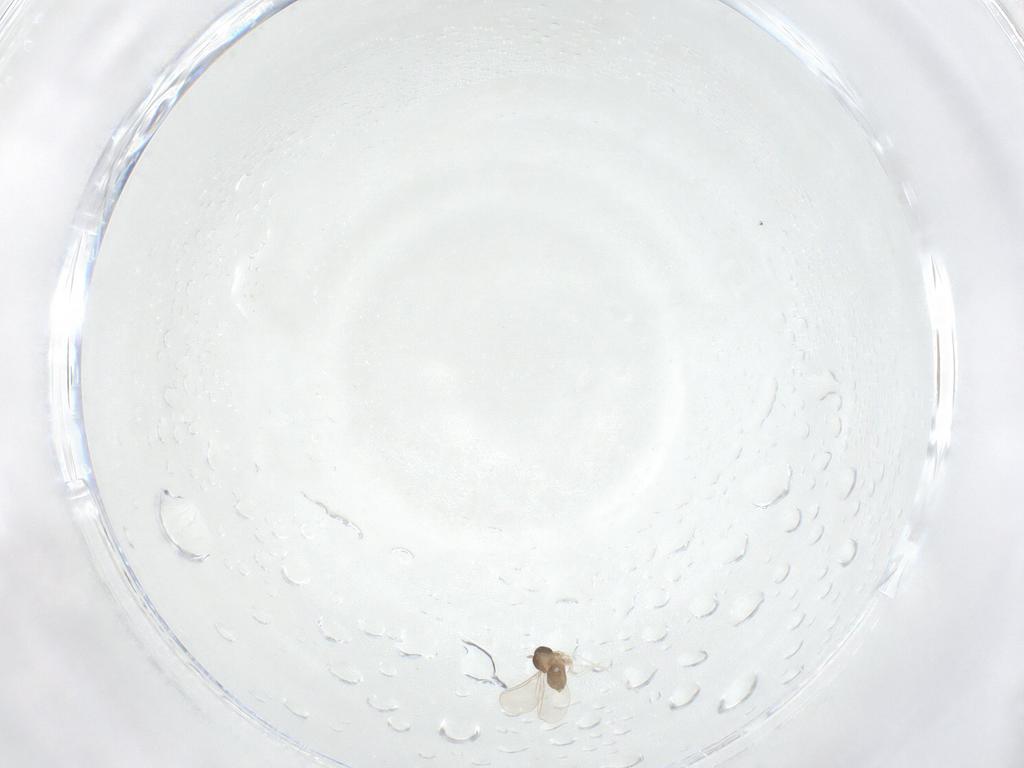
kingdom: Animalia
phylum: Arthropoda
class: Insecta
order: Diptera
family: Cecidomyiidae
